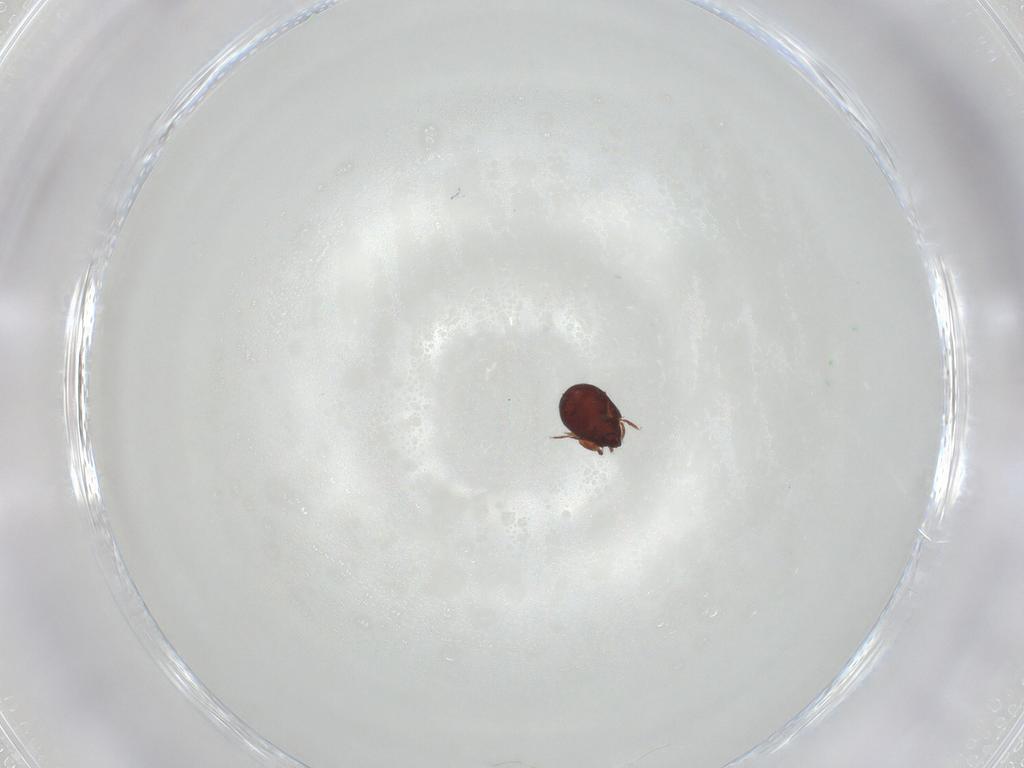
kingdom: Animalia
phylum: Arthropoda
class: Arachnida
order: Sarcoptiformes
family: Humerobatidae
